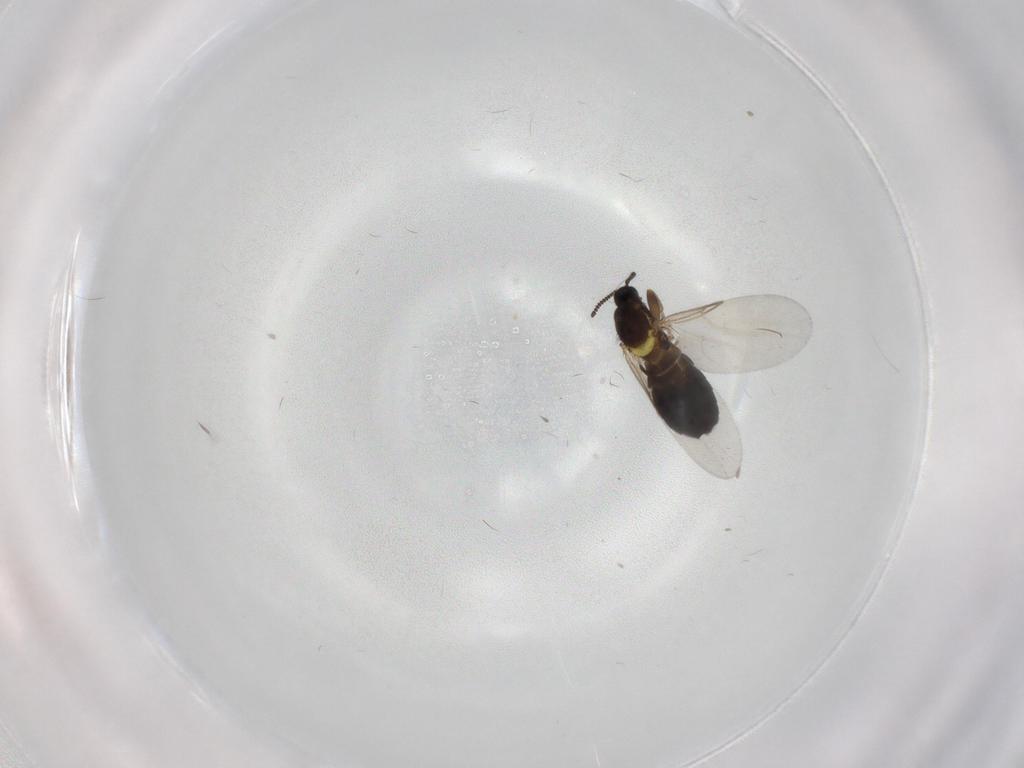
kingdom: Animalia
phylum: Arthropoda
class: Insecta
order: Diptera
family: Scatopsidae
